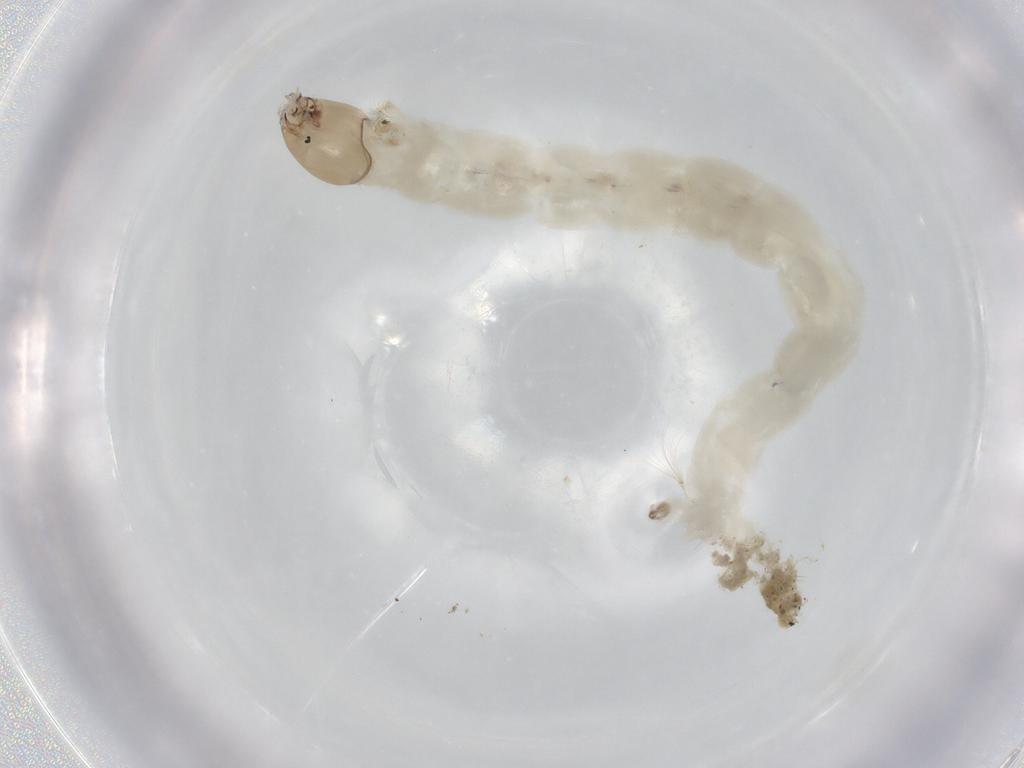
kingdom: Animalia
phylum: Arthropoda
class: Insecta
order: Diptera
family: Chironomidae
